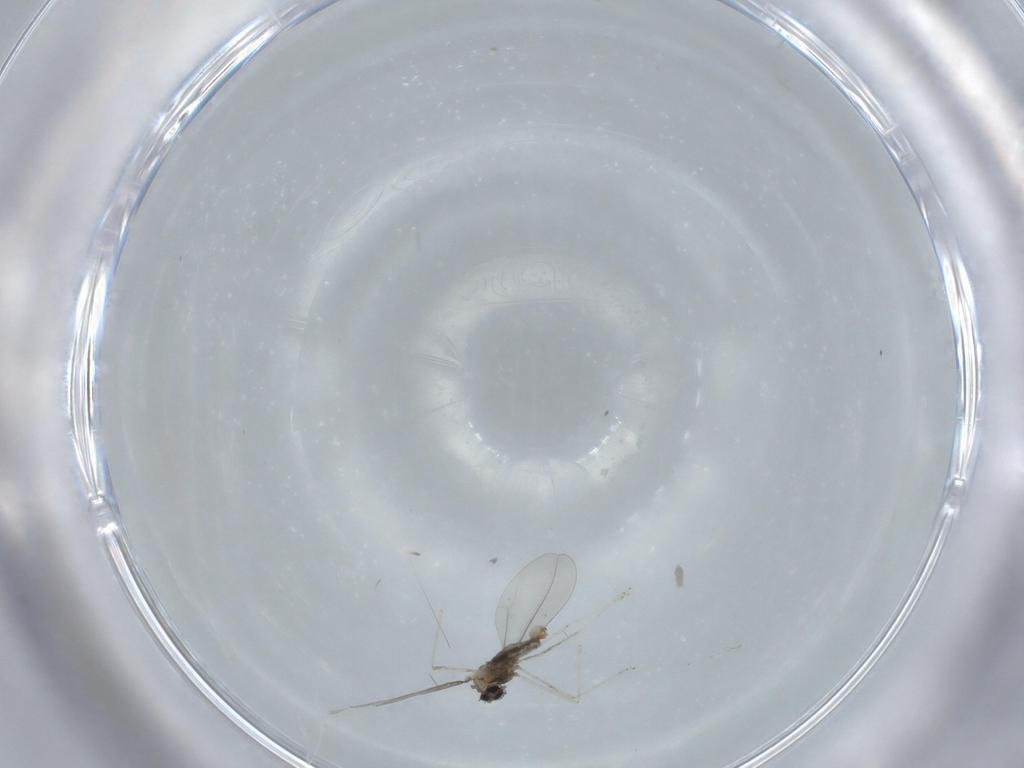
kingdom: Animalia
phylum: Arthropoda
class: Insecta
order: Diptera
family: Cecidomyiidae
